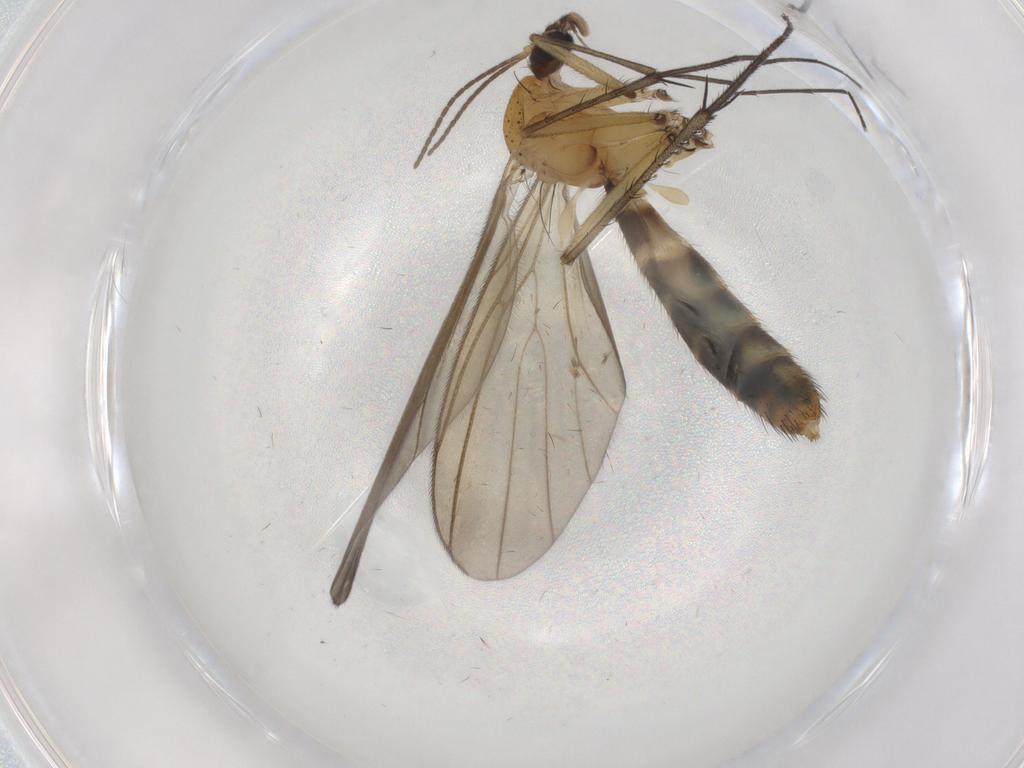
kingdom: Animalia
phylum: Arthropoda
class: Insecta
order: Diptera
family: Mycetophilidae
